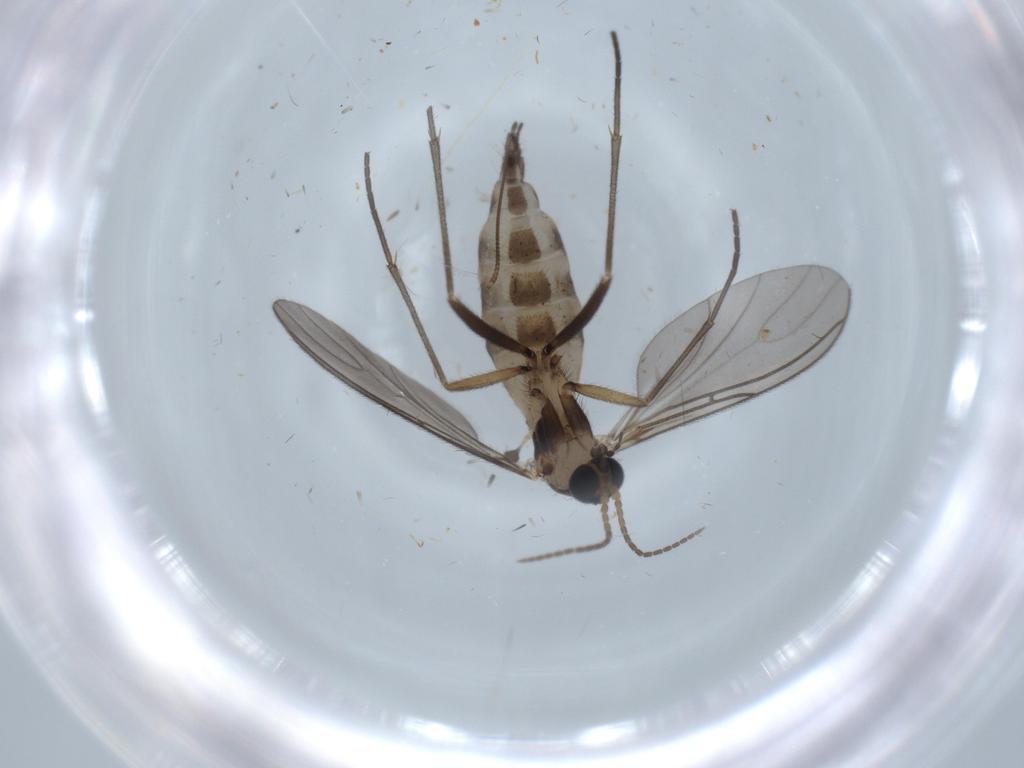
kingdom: Animalia
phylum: Arthropoda
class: Insecta
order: Diptera
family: Sciaridae
